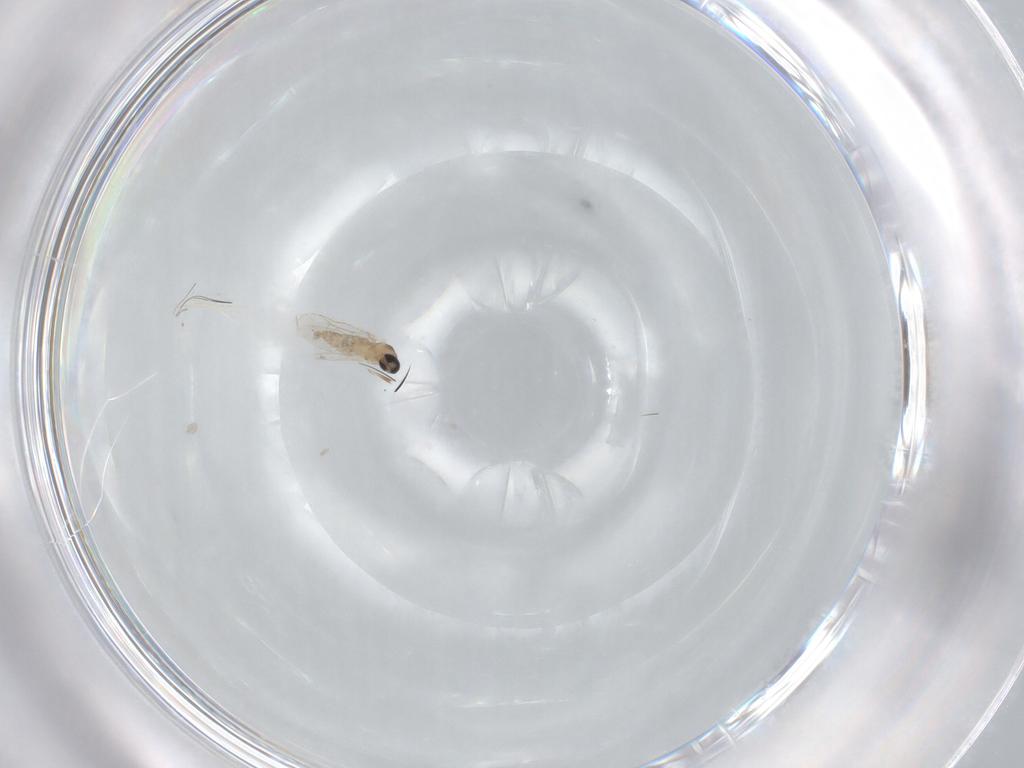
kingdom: Animalia
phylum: Arthropoda
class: Insecta
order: Diptera
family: Cecidomyiidae
